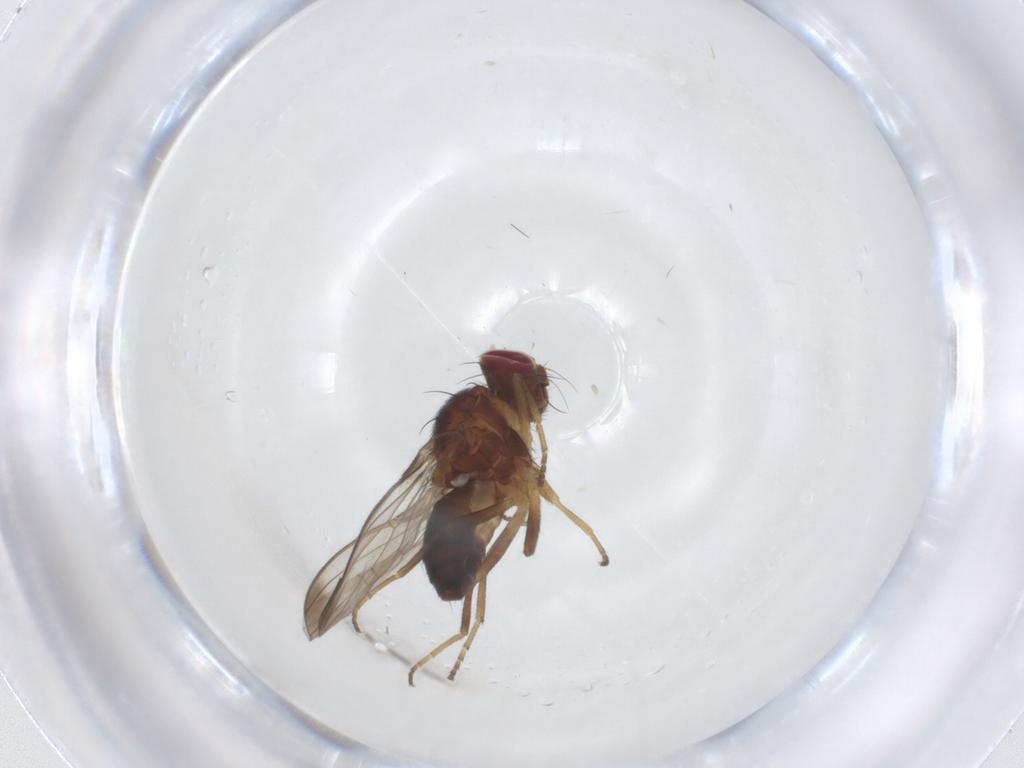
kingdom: Animalia
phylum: Arthropoda
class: Insecta
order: Diptera
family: Piophilidae
